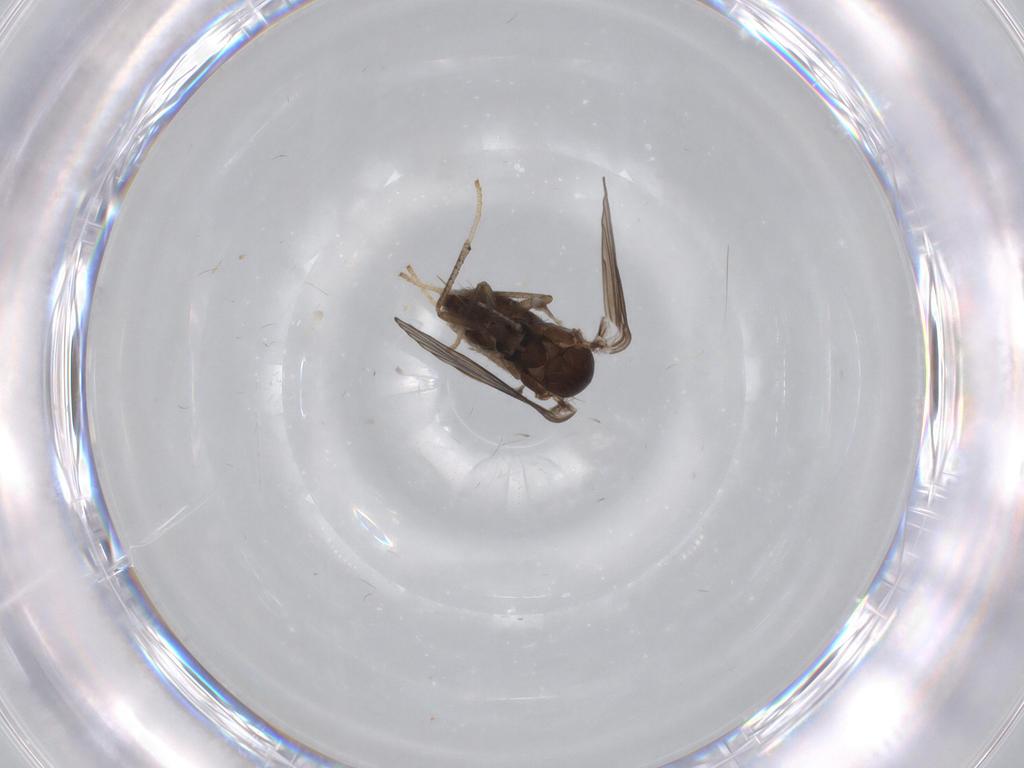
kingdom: Animalia
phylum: Arthropoda
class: Insecta
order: Diptera
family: Psychodidae
